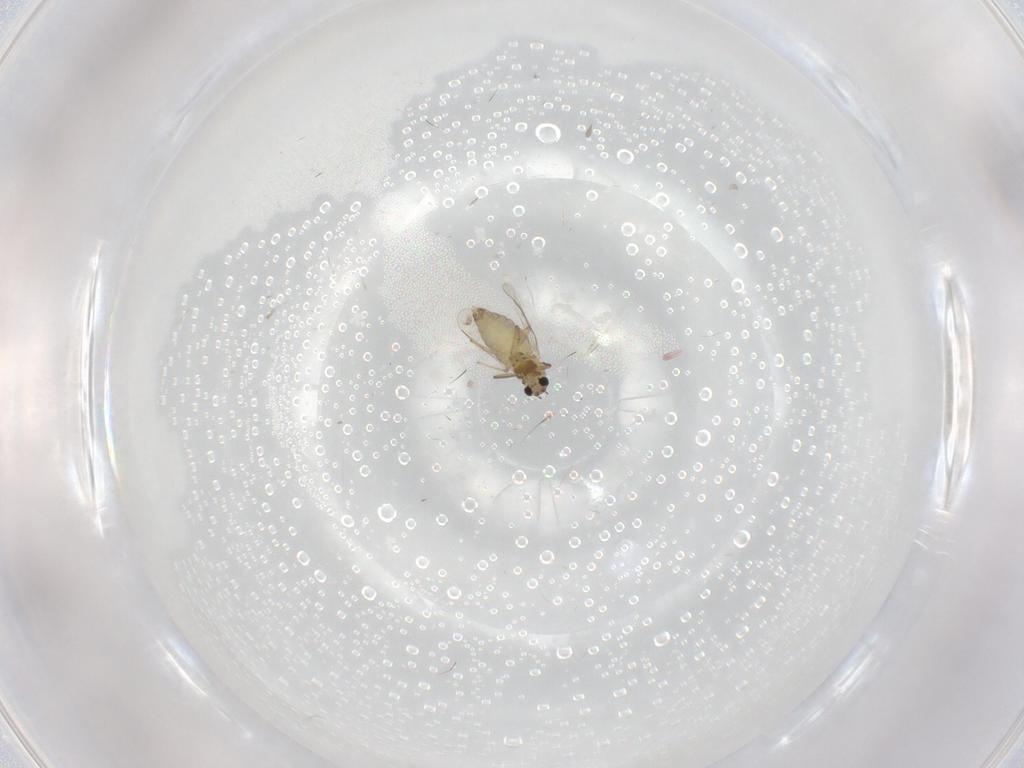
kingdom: Animalia
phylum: Arthropoda
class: Insecta
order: Diptera
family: Chironomidae
